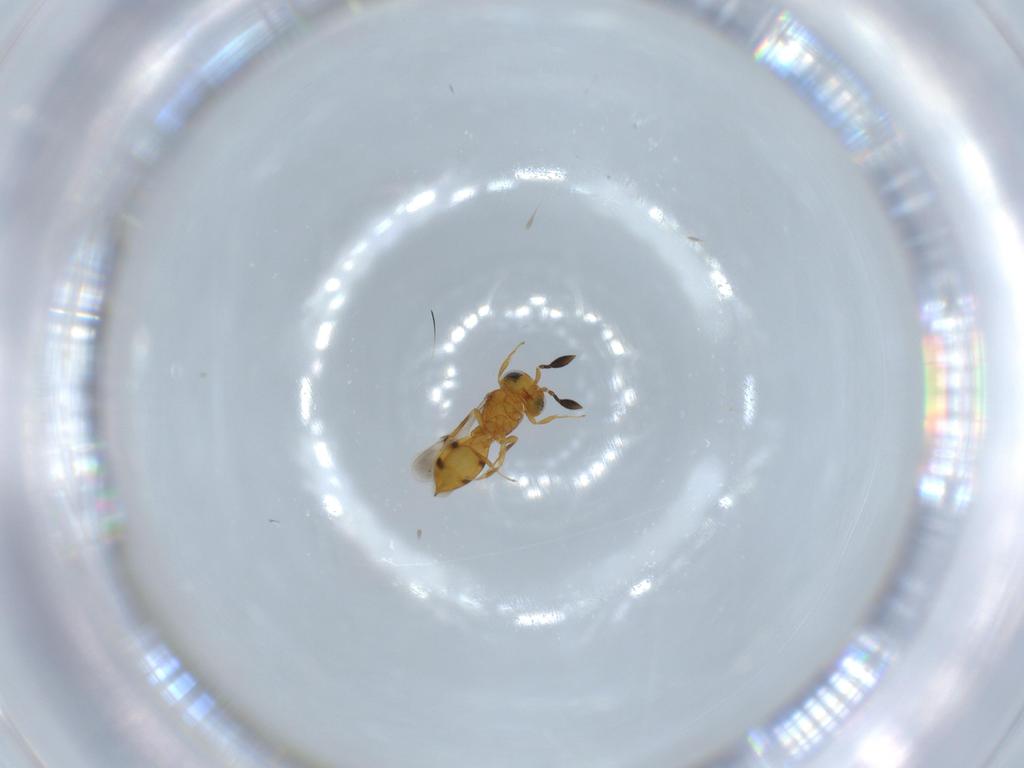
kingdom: Animalia
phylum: Arthropoda
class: Insecta
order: Hymenoptera
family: Scelionidae
